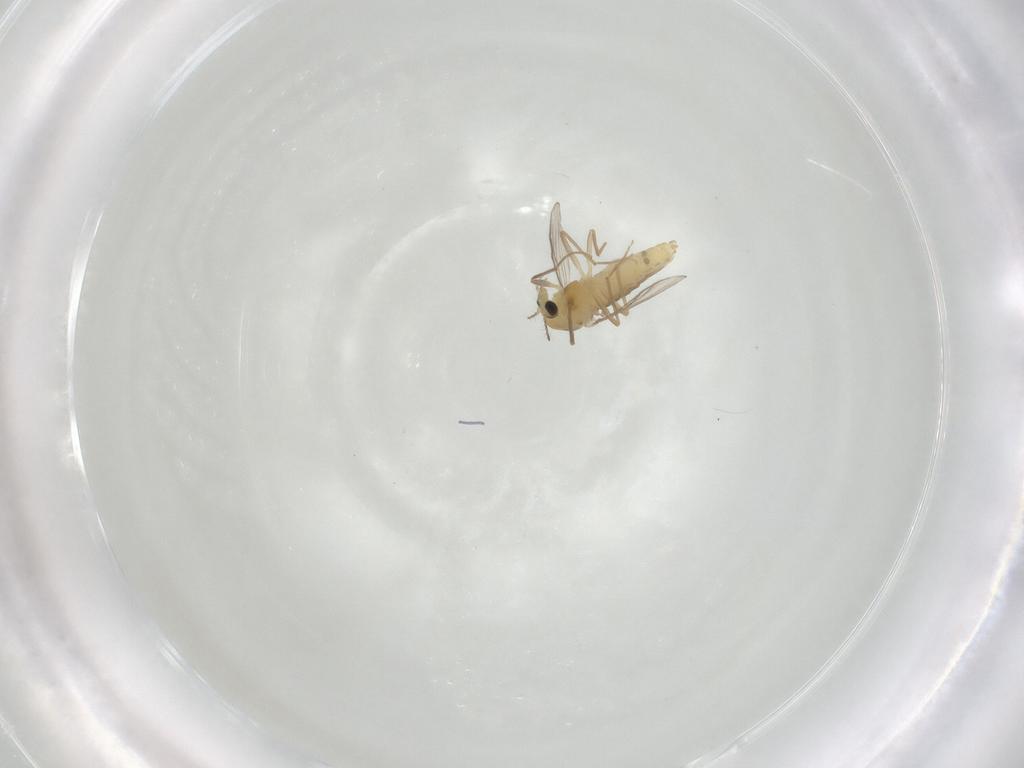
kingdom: Animalia
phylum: Arthropoda
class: Insecta
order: Diptera
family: Chironomidae
